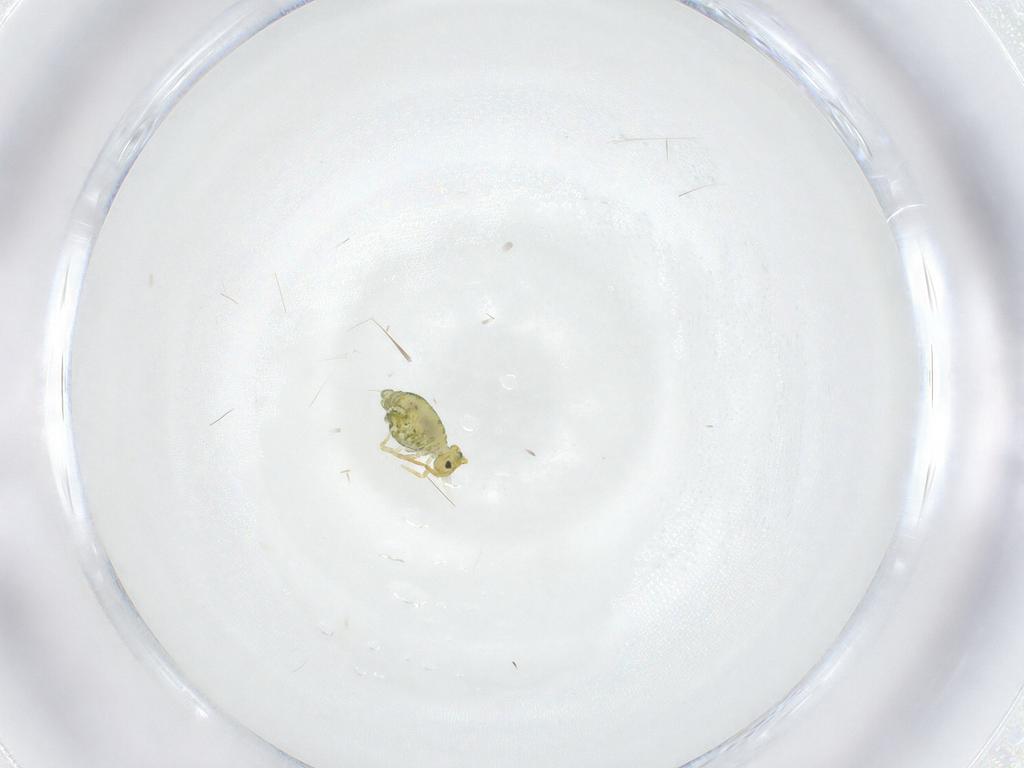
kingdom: Animalia
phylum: Arthropoda
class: Collembola
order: Symphypleona
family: Katiannidae
